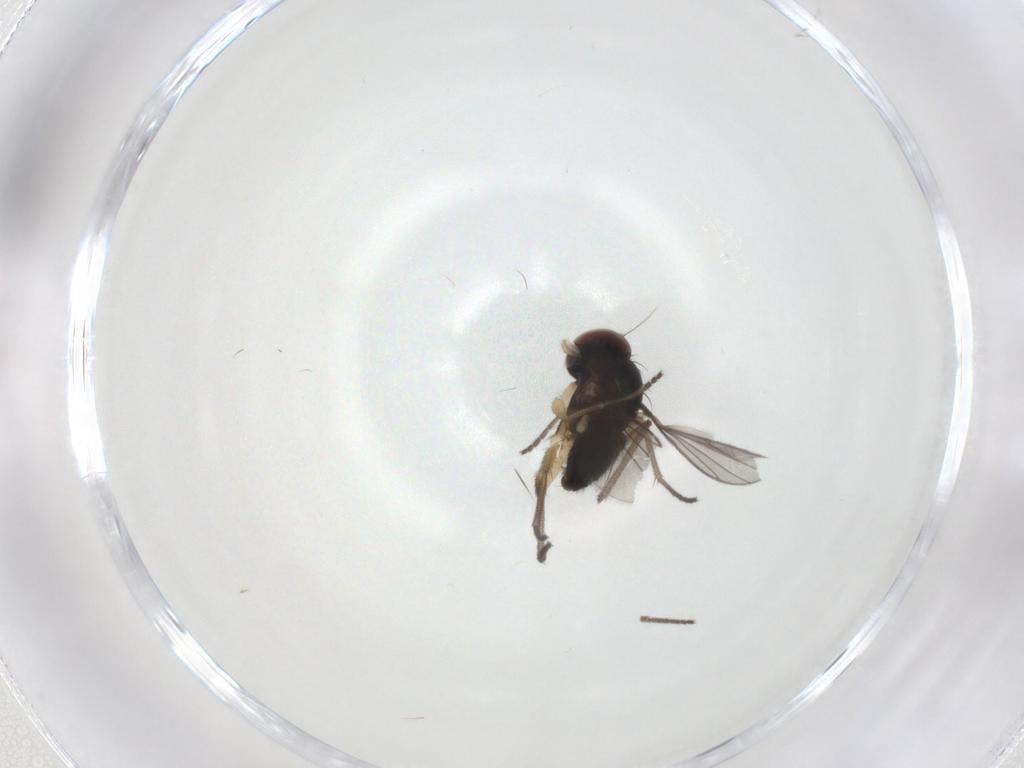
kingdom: Animalia
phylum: Arthropoda
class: Insecta
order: Diptera
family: Dolichopodidae
